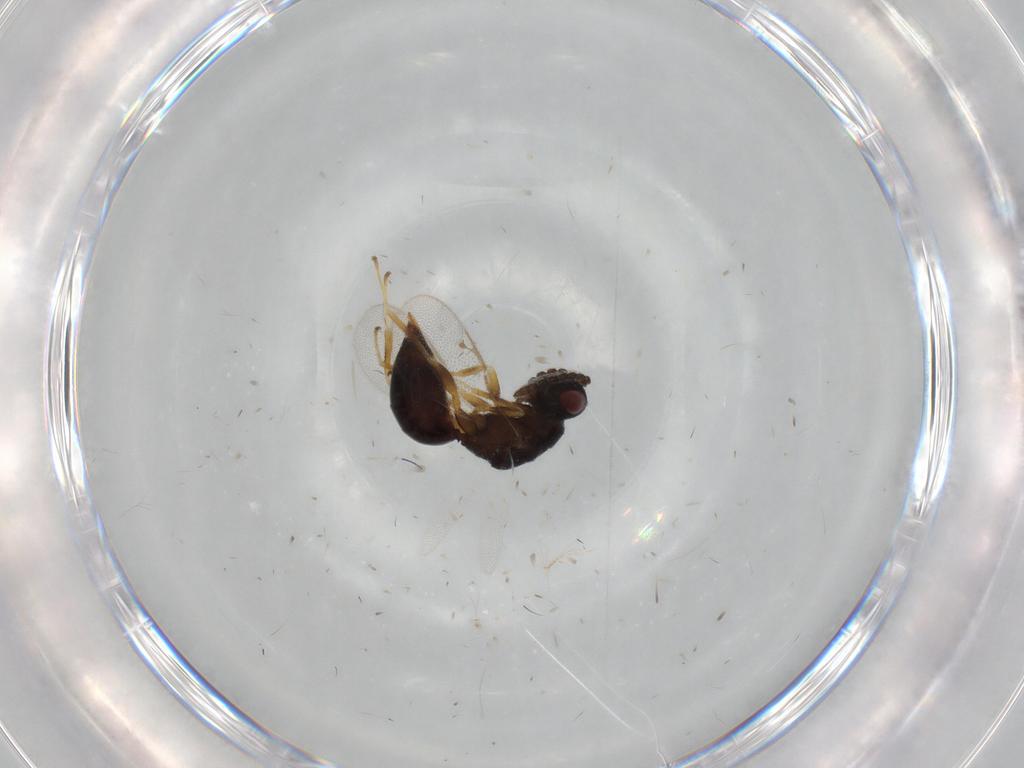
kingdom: Animalia
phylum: Arthropoda
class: Insecta
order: Hymenoptera
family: Eurytomidae
